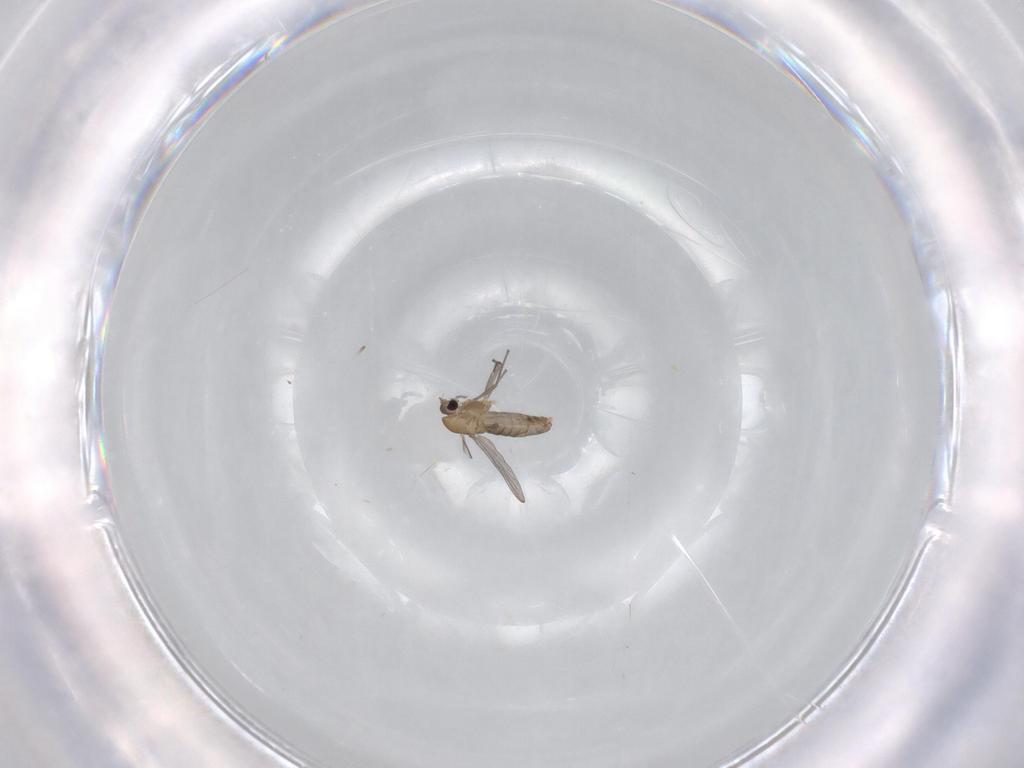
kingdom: Animalia
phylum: Arthropoda
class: Insecta
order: Diptera
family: Chironomidae
